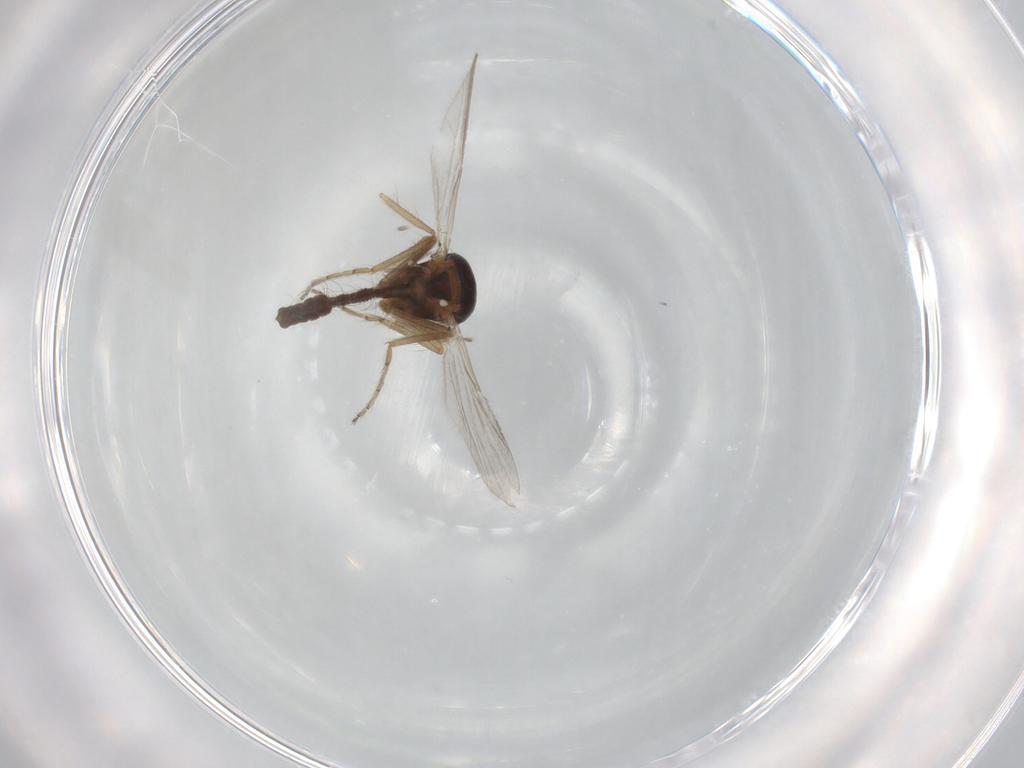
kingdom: Animalia
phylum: Arthropoda
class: Insecta
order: Diptera
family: Ceratopogonidae
